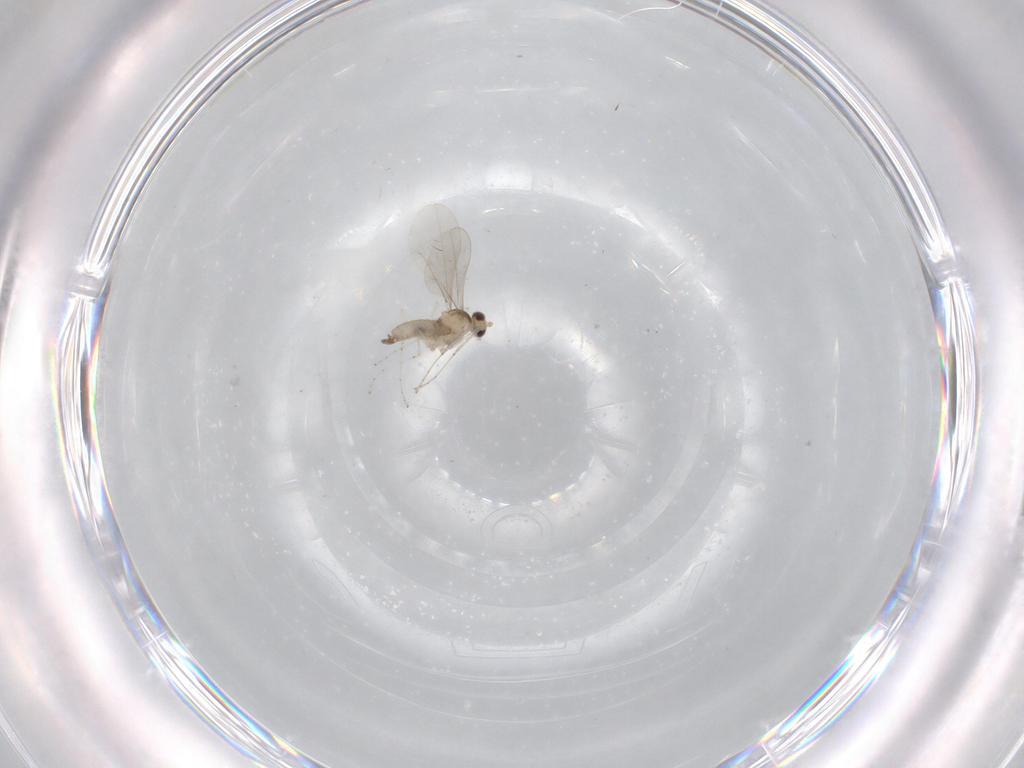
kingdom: Animalia
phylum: Arthropoda
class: Insecta
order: Diptera
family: Cecidomyiidae
